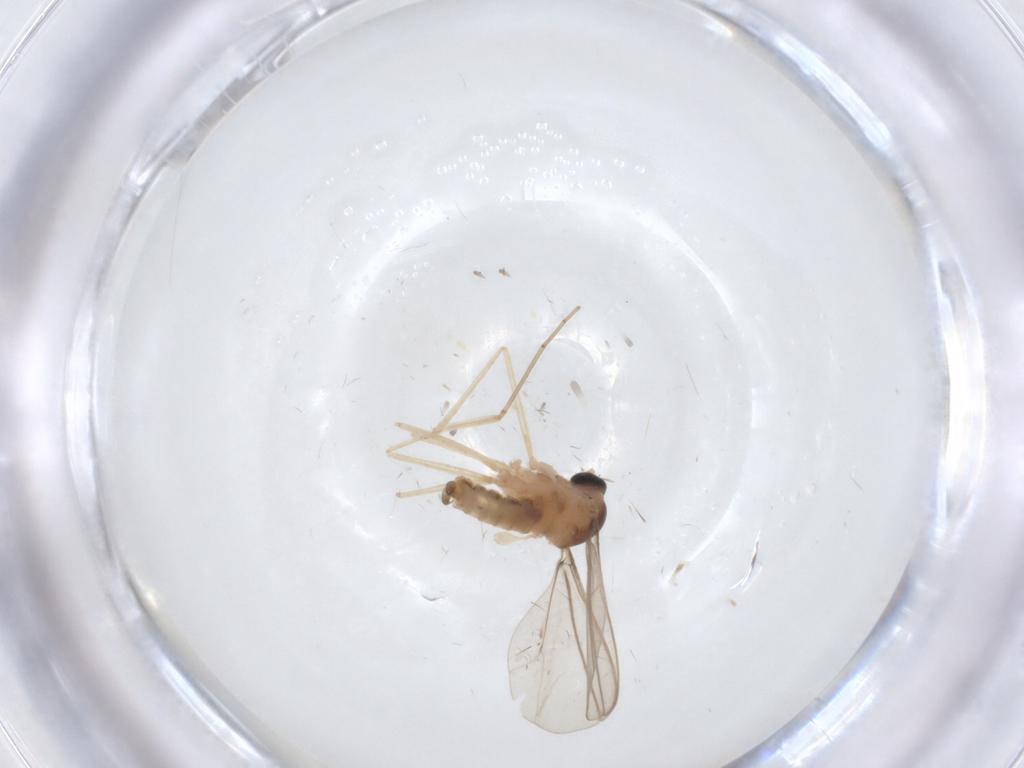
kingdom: Animalia
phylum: Arthropoda
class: Insecta
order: Diptera
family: Cecidomyiidae
